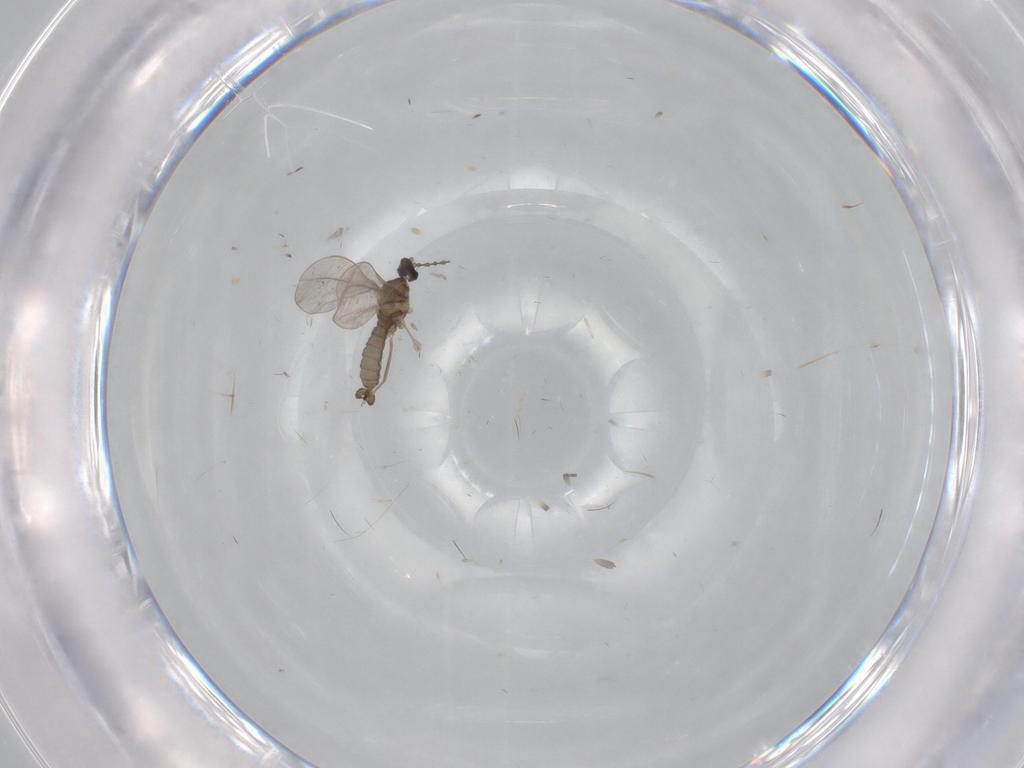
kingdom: Animalia
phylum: Arthropoda
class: Insecta
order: Diptera
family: Cecidomyiidae
